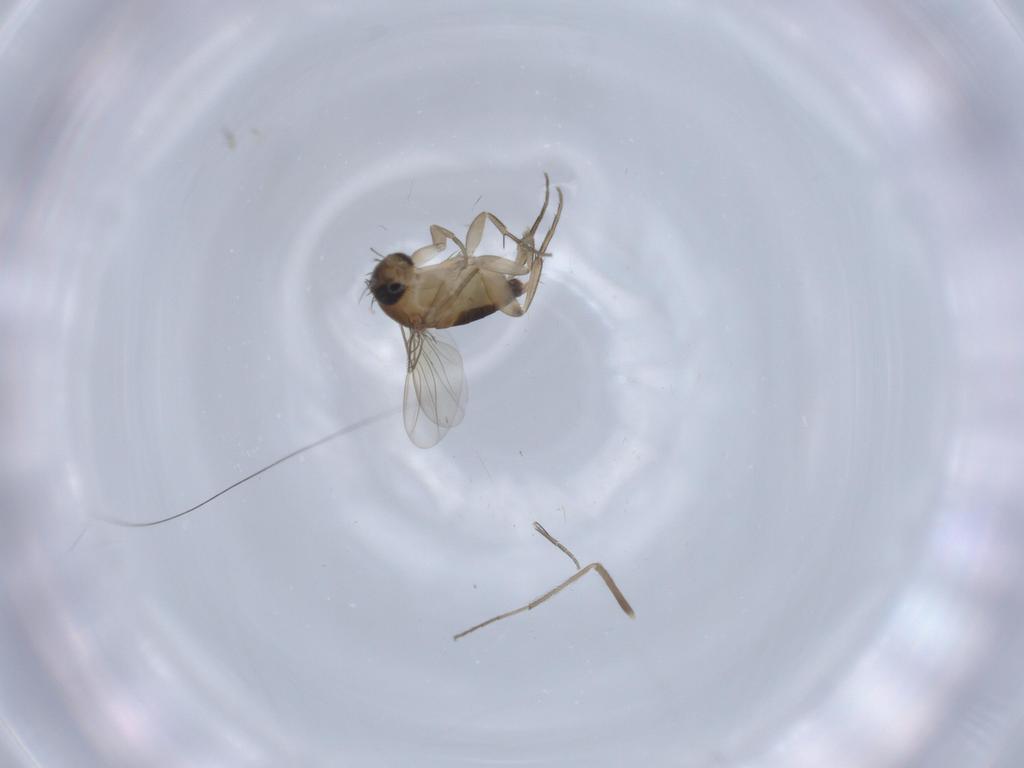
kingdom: Animalia
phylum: Arthropoda
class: Insecta
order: Diptera
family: Phoridae
